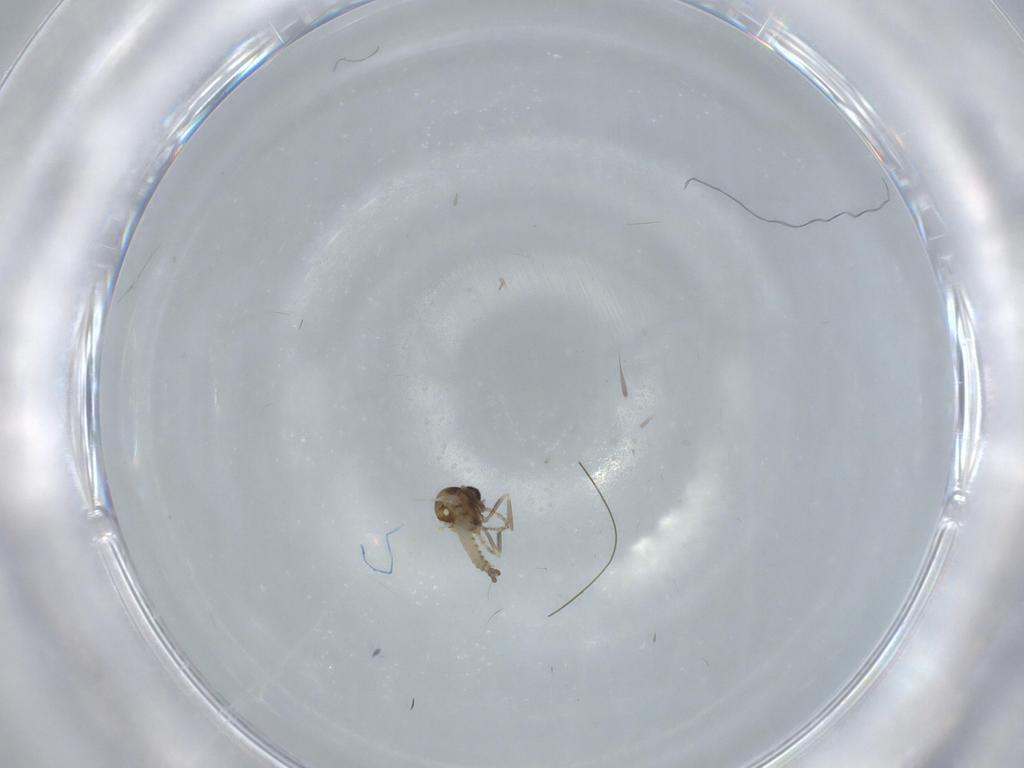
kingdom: Animalia
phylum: Arthropoda
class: Insecta
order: Diptera
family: Ceratopogonidae
